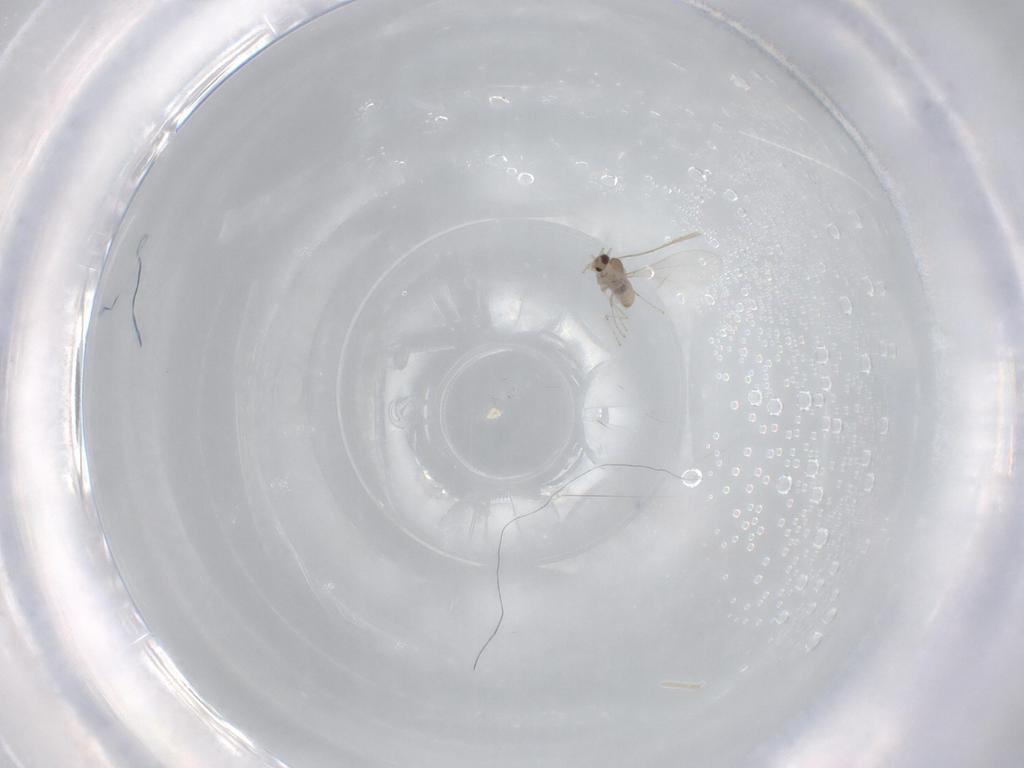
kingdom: Animalia
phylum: Arthropoda
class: Insecta
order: Diptera
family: Cecidomyiidae
